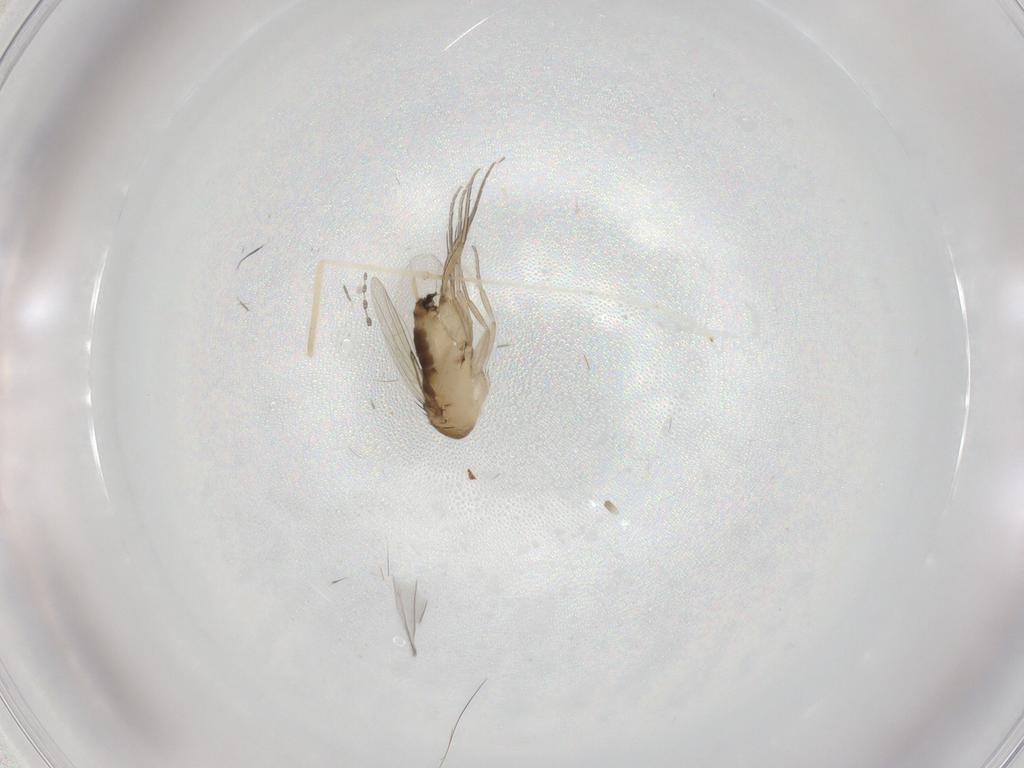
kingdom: Animalia
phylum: Arthropoda
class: Insecta
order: Diptera
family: Phoridae
